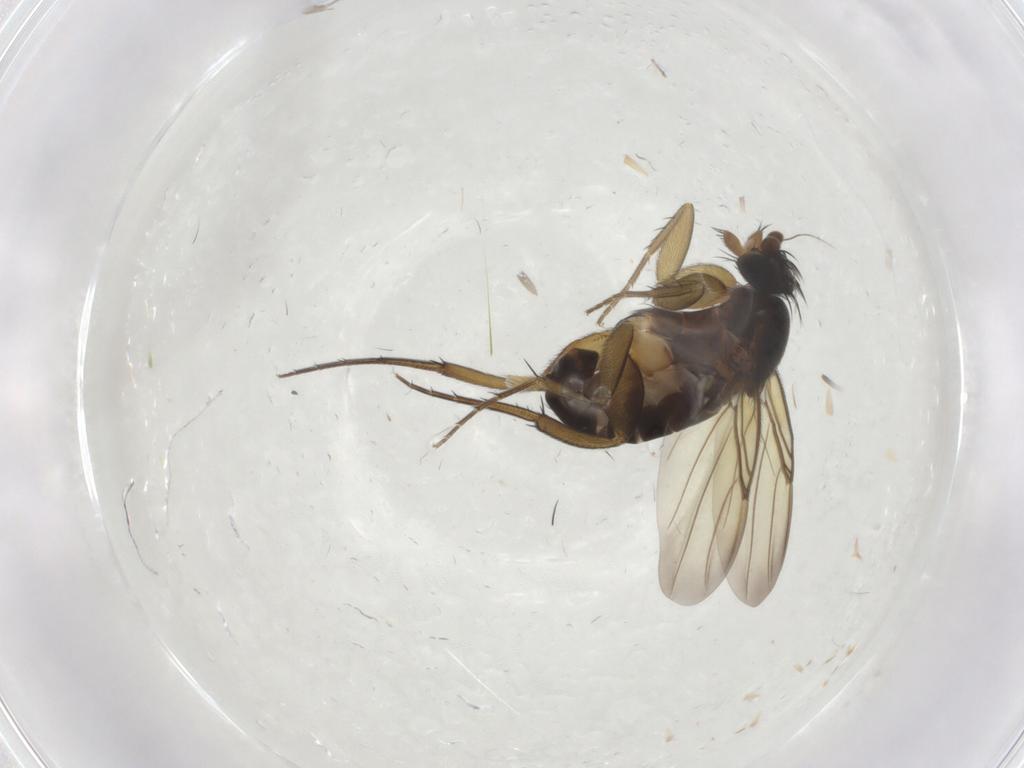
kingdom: Animalia
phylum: Arthropoda
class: Insecta
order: Diptera
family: Phoridae
